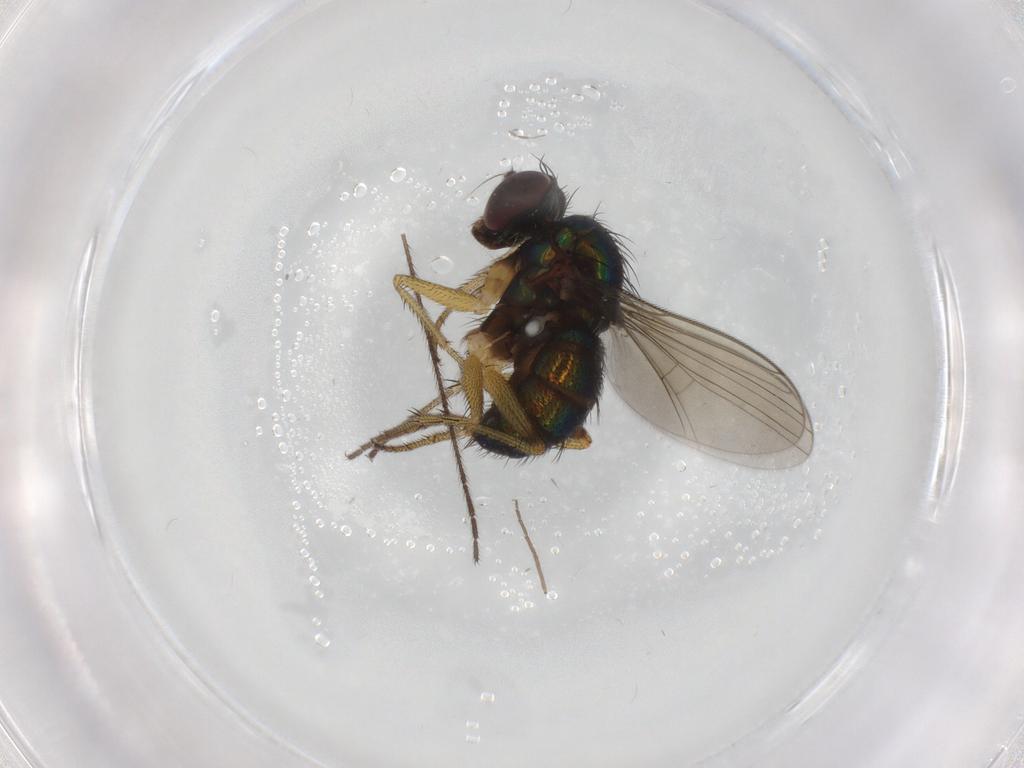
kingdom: Animalia
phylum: Arthropoda
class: Insecta
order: Diptera
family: Dolichopodidae
